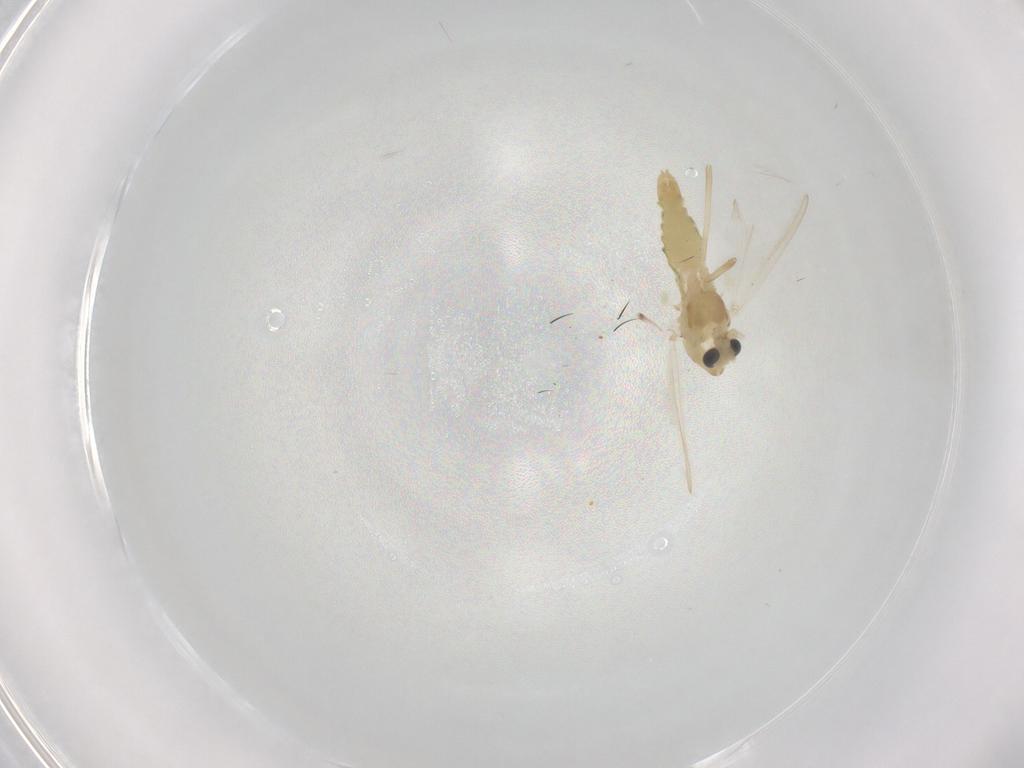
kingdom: Animalia
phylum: Arthropoda
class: Insecta
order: Diptera
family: Chironomidae
